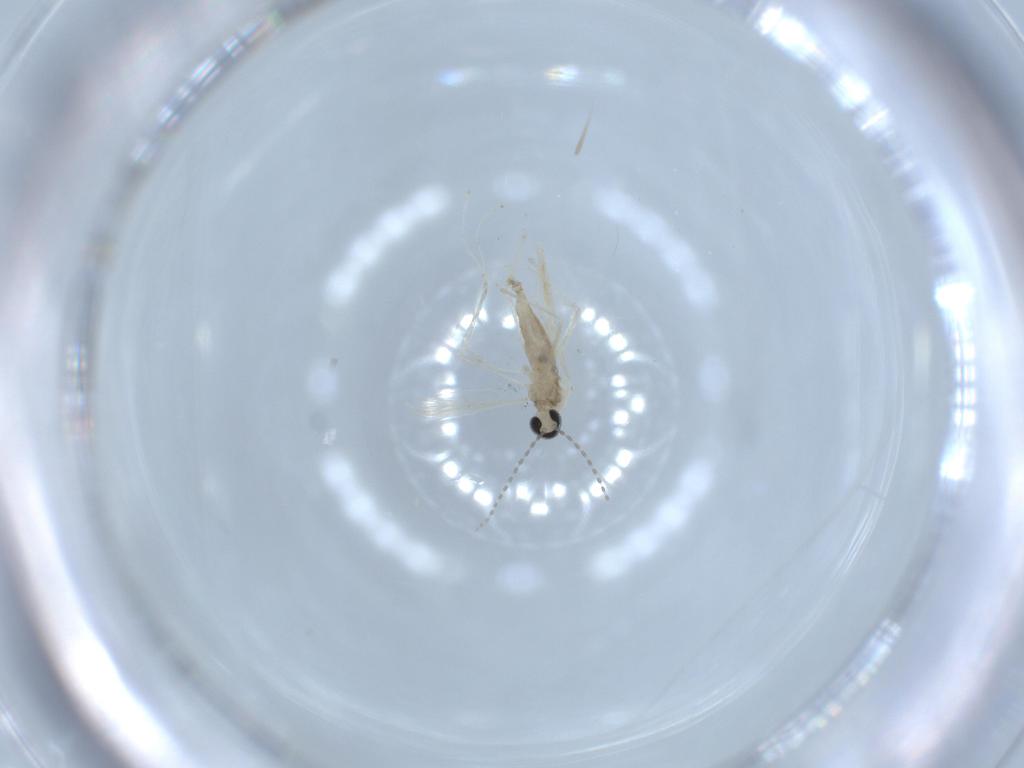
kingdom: Animalia
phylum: Arthropoda
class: Insecta
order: Diptera
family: Cecidomyiidae
